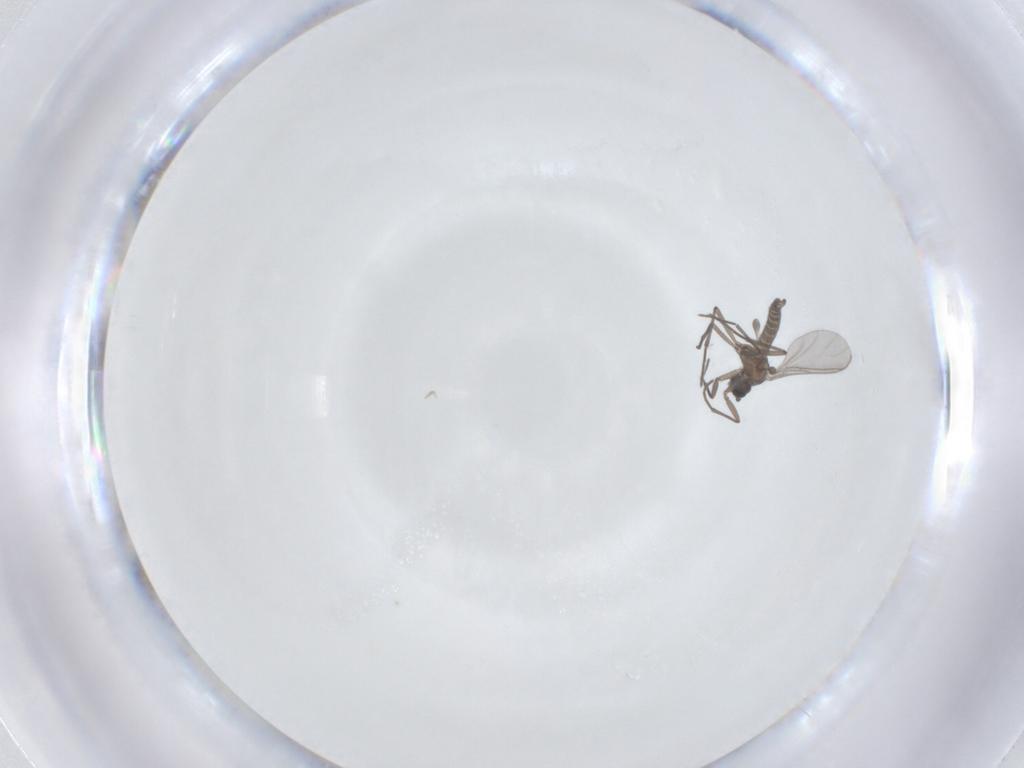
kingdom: Animalia
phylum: Arthropoda
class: Insecta
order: Diptera
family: Sciaridae
